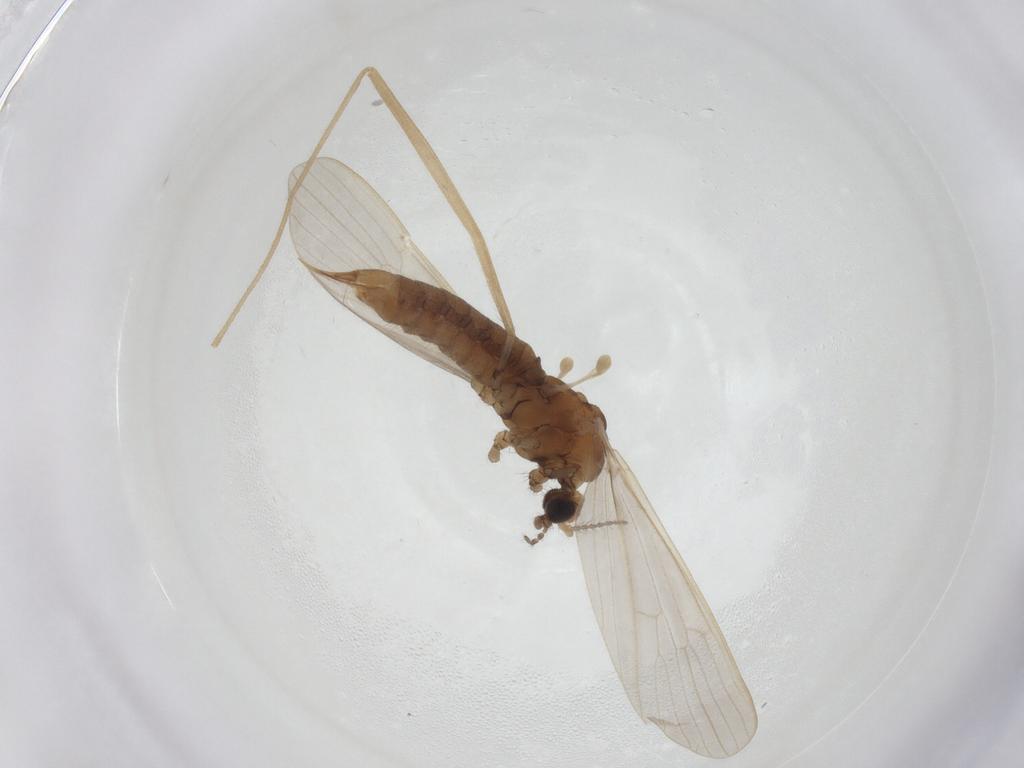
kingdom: Animalia
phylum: Arthropoda
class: Insecta
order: Diptera
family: Limoniidae
